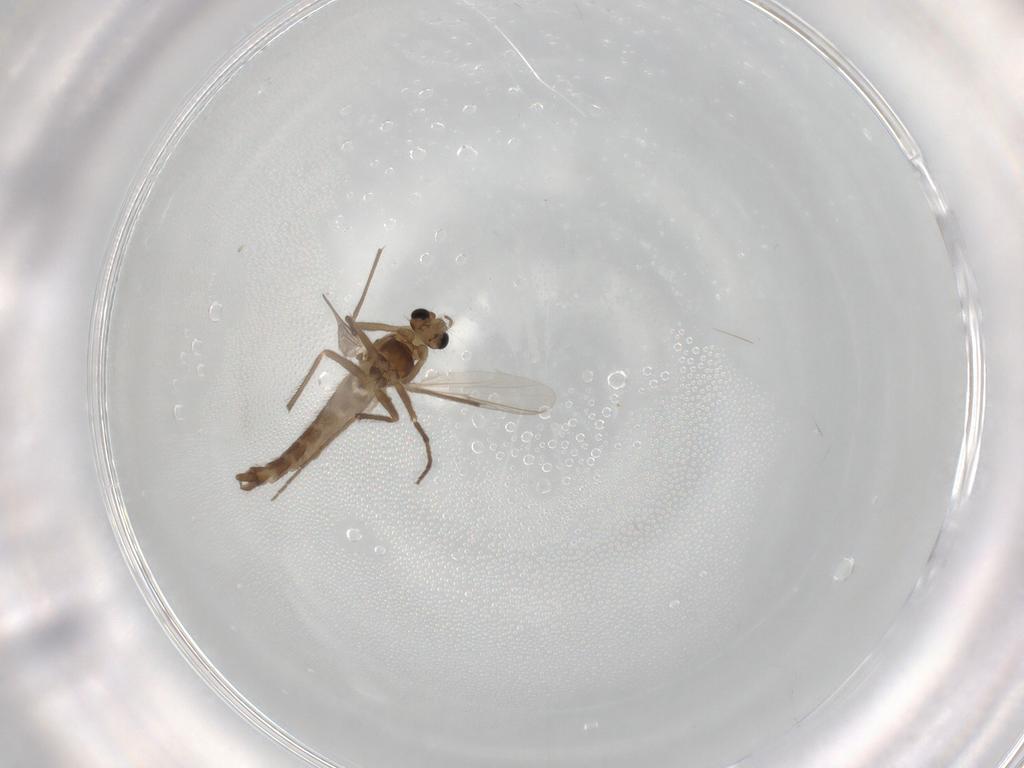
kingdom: Animalia
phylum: Arthropoda
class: Insecta
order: Diptera
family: Chironomidae
